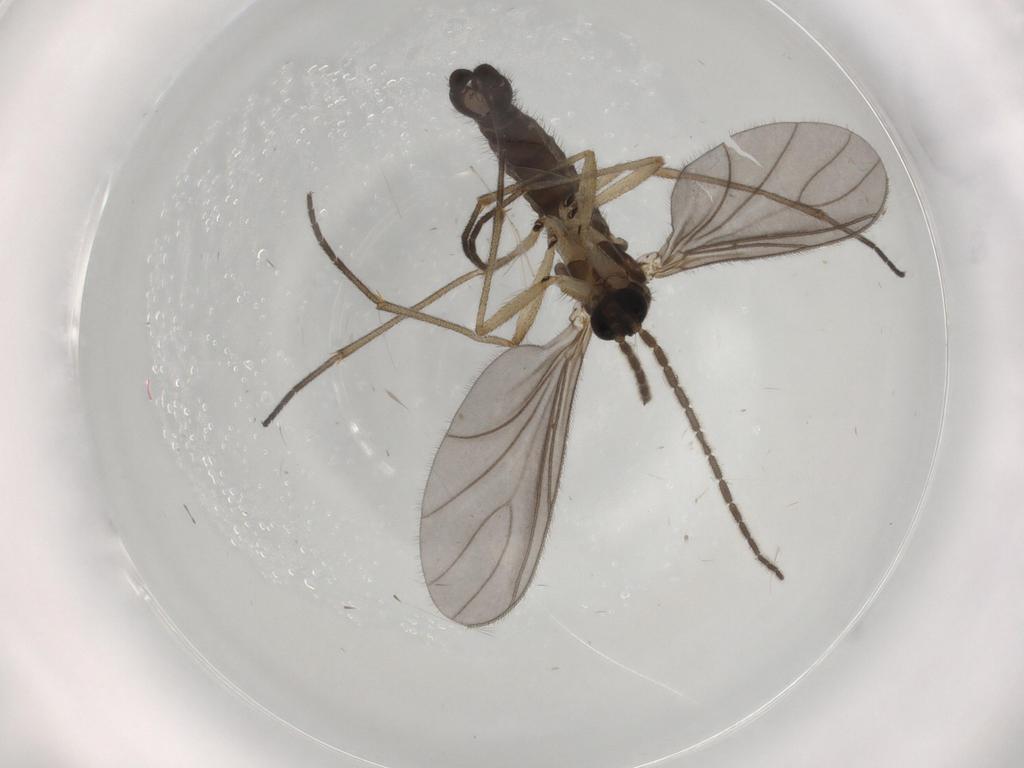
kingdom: Animalia
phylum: Arthropoda
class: Insecta
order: Diptera
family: Sciaridae
